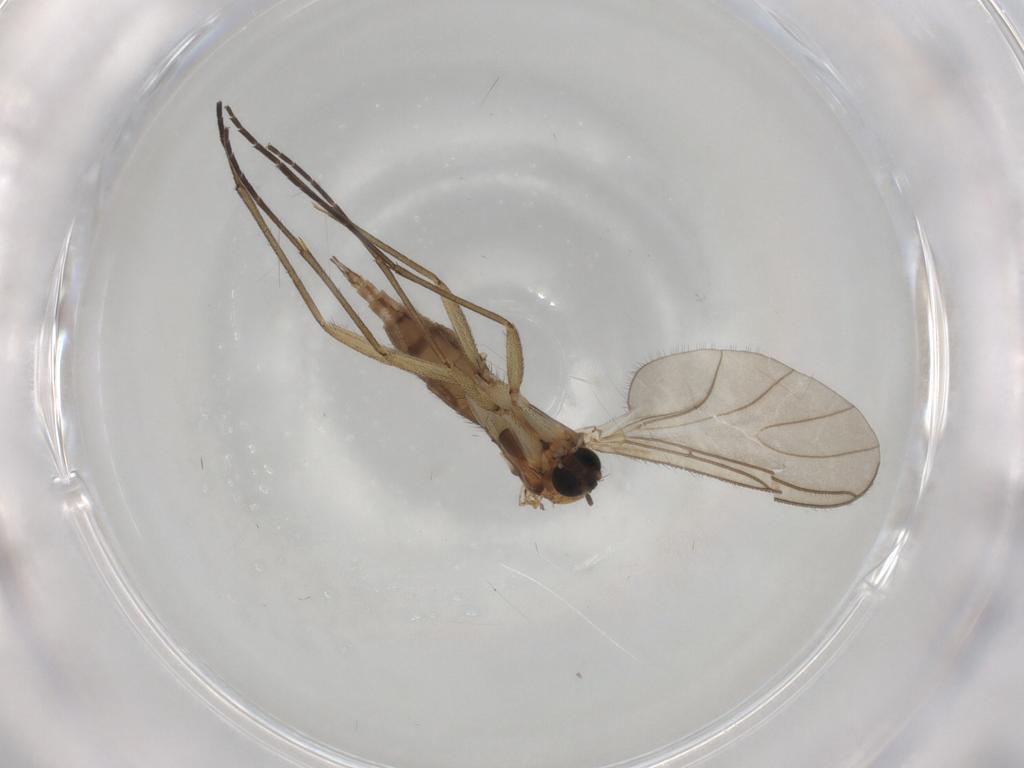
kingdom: Animalia
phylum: Arthropoda
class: Insecta
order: Diptera
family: Sciaridae
